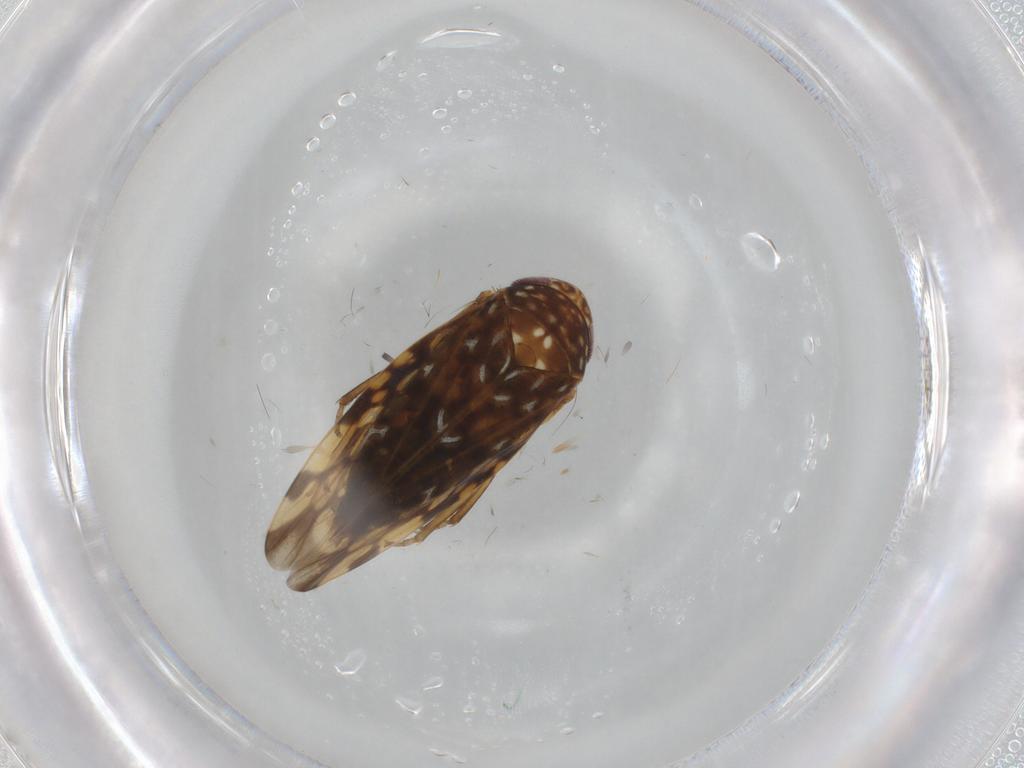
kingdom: Animalia
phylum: Arthropoda
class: Insecta
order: Hemiptera
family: Cicadellidae
